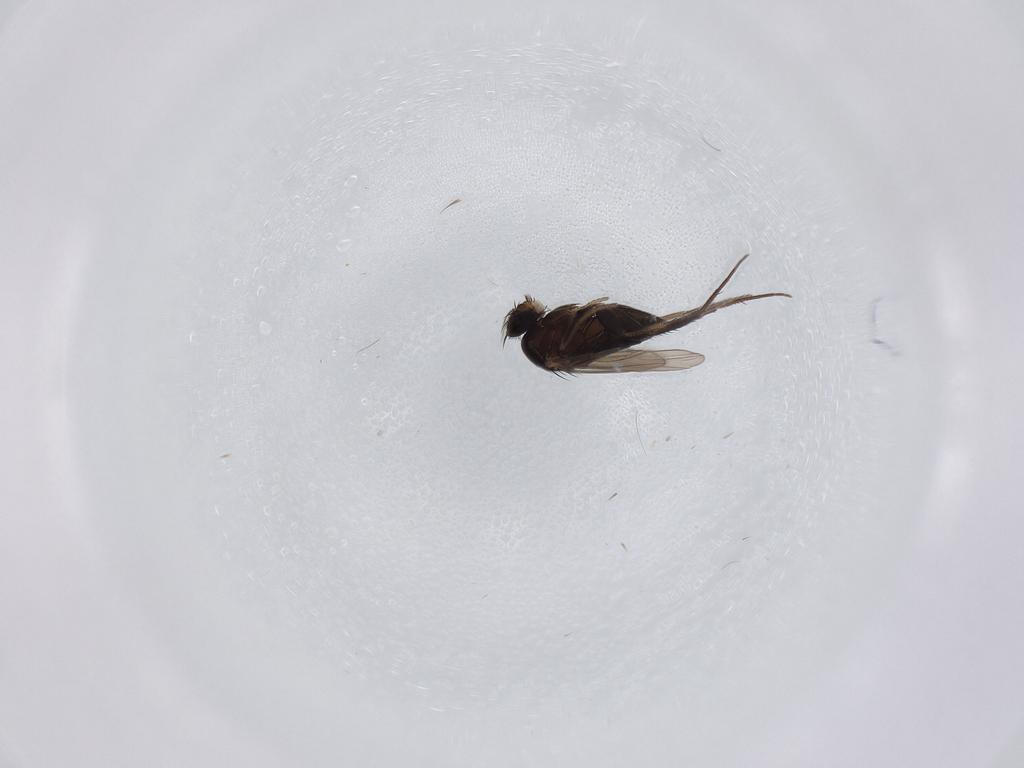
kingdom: Animalia
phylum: Arthropoda
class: Insecta
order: Diptera
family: Phoridae
